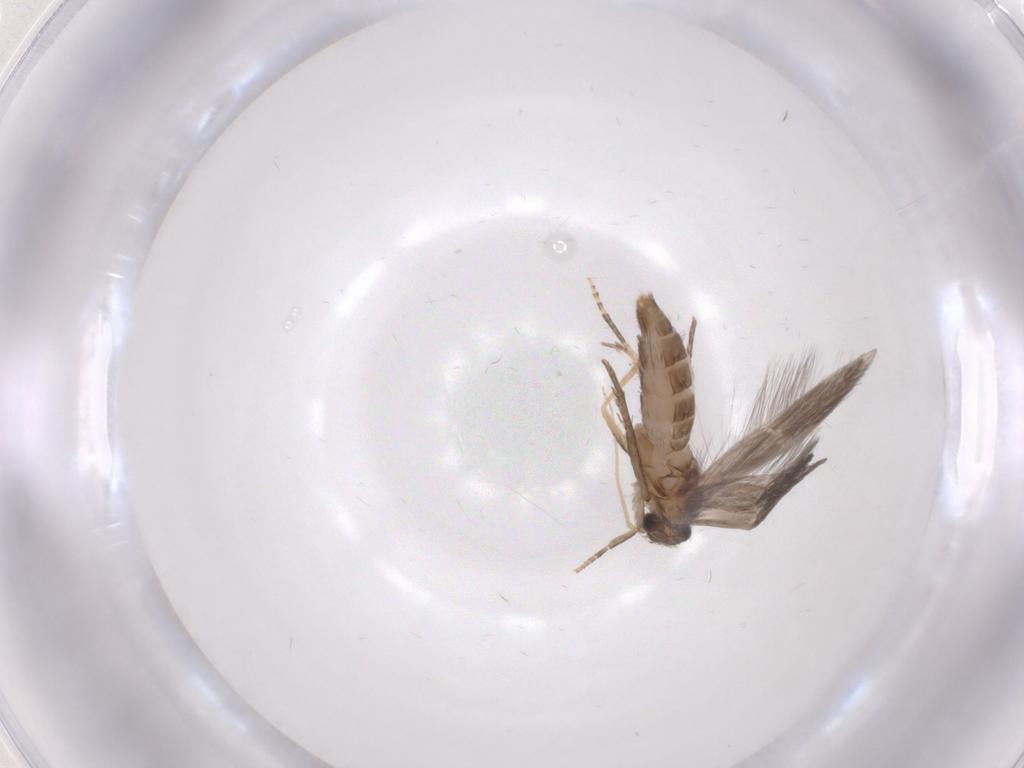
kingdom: Animalia
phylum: Arthropoda
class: Insecta
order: Trichoptera
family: Hydroptilidae
